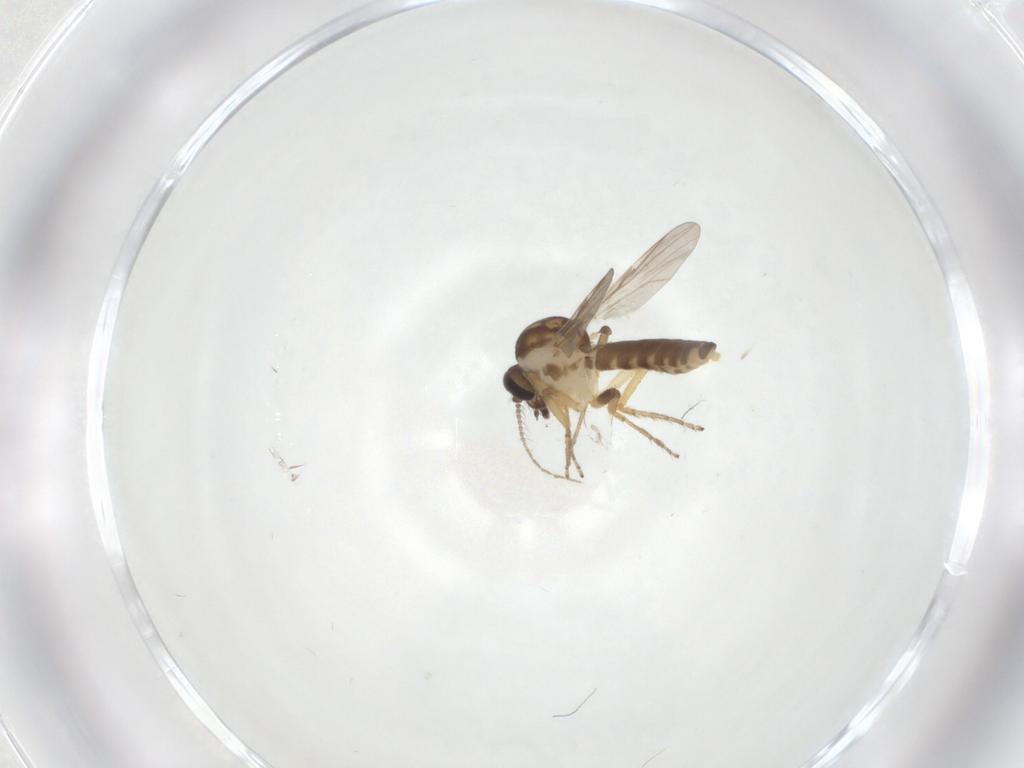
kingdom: Animalia
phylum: Arthropoda
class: Insecta
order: Diptera
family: Ceratopogonidae
